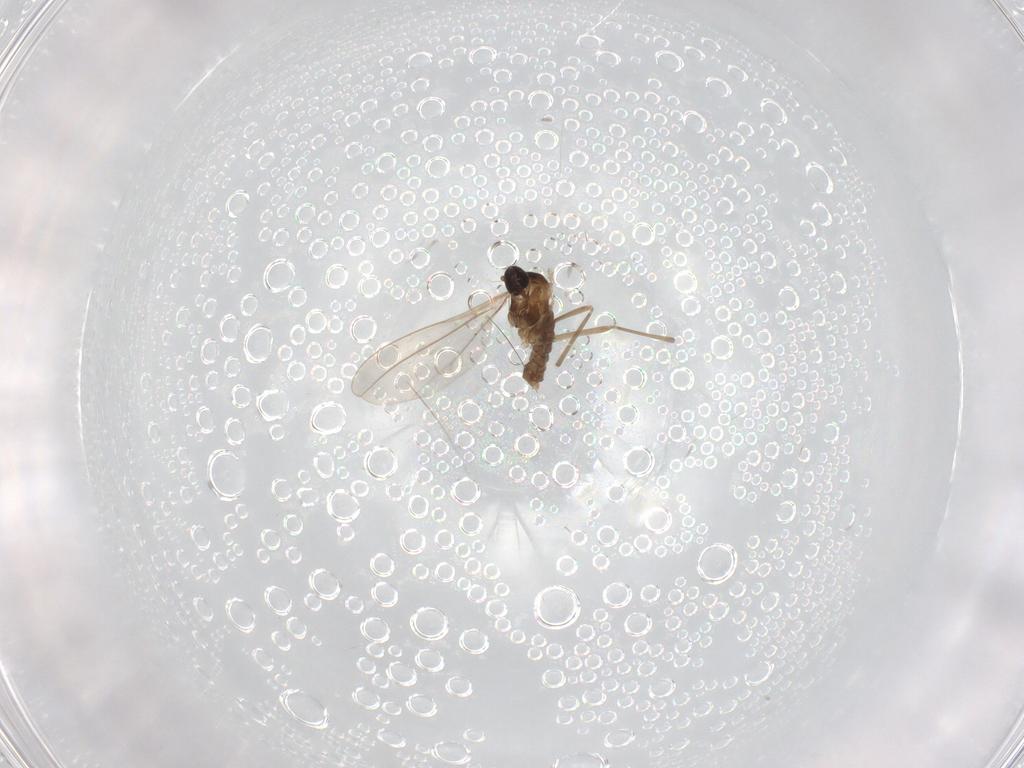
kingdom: Animalia
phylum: Arthropoda
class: Insecta
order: Diptera
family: Cecidomyiidae
